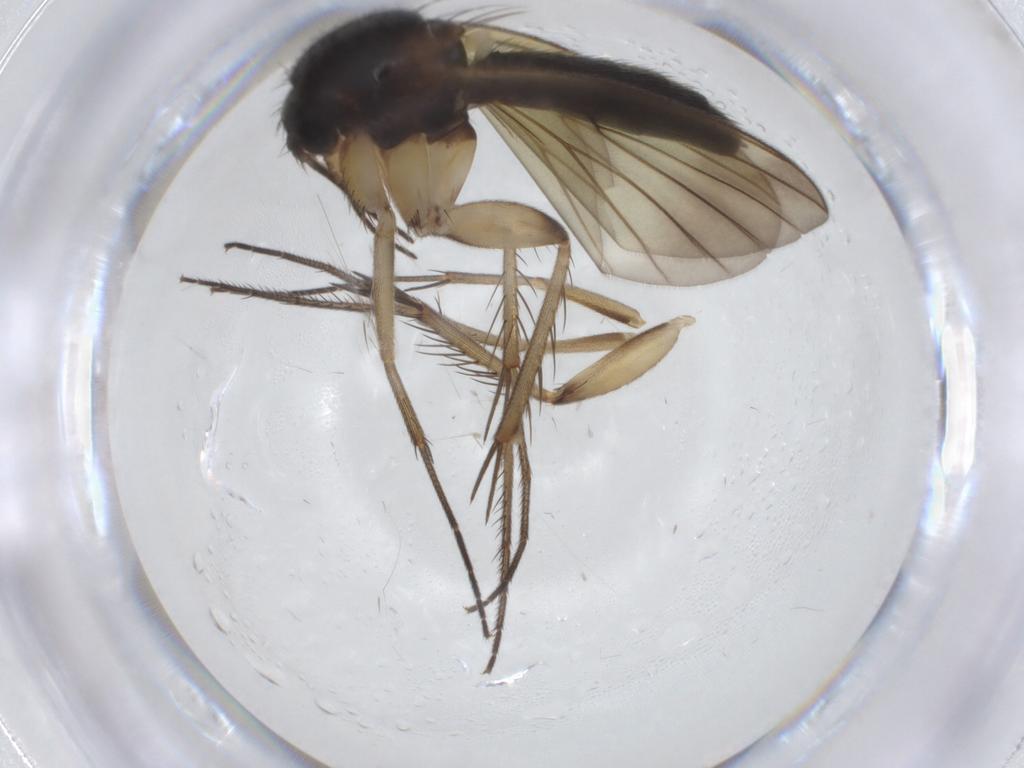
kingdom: Animalia
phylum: Arthropoda
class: Insecta
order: Diptera
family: Mycetophilidae
